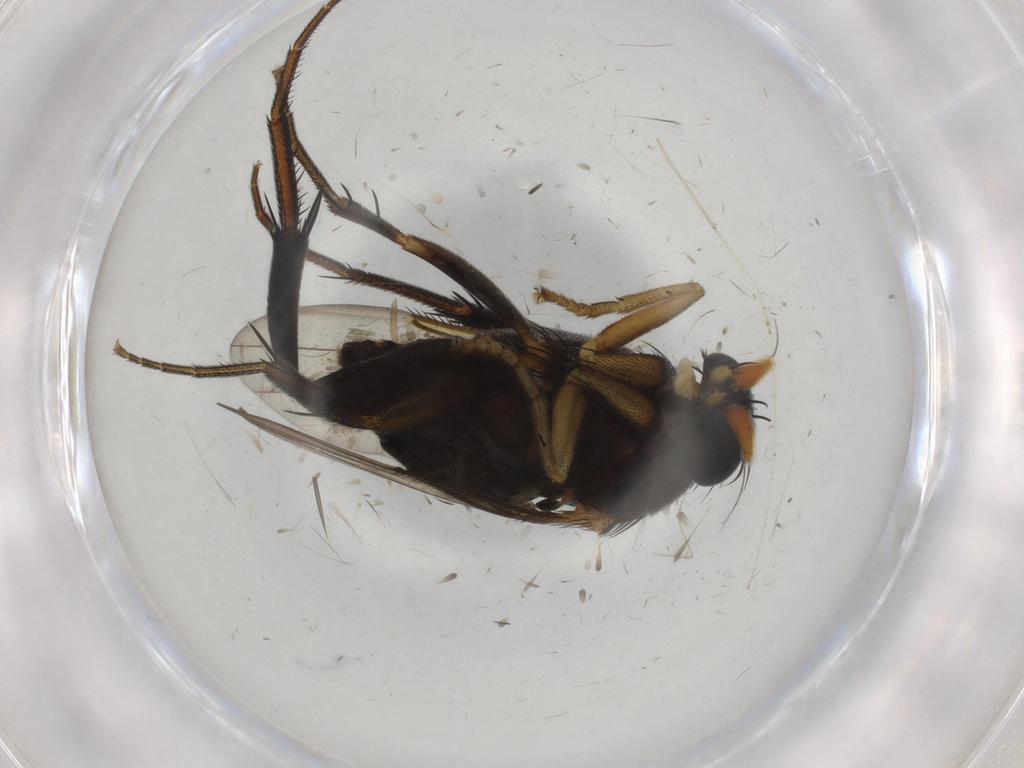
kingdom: Animalia
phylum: Arthropoda
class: Insecta
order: Diptera
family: Phoridae
